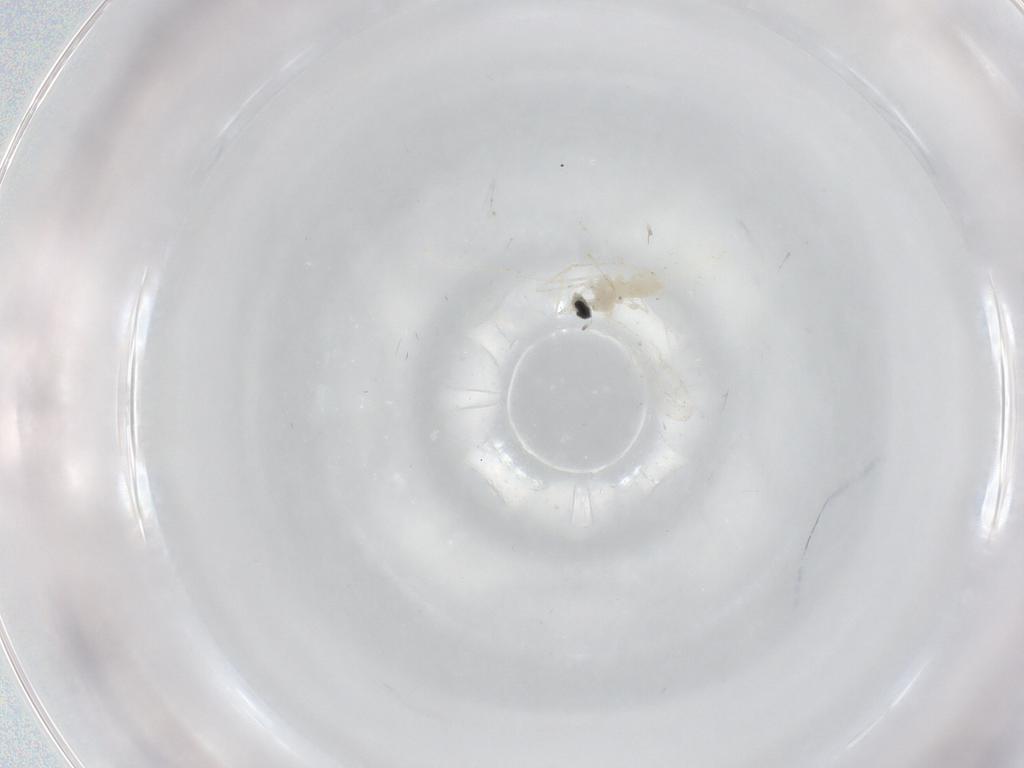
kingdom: Animalia
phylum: Arthropoda
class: Insecta
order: Diptera
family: Cecidomyiidae
